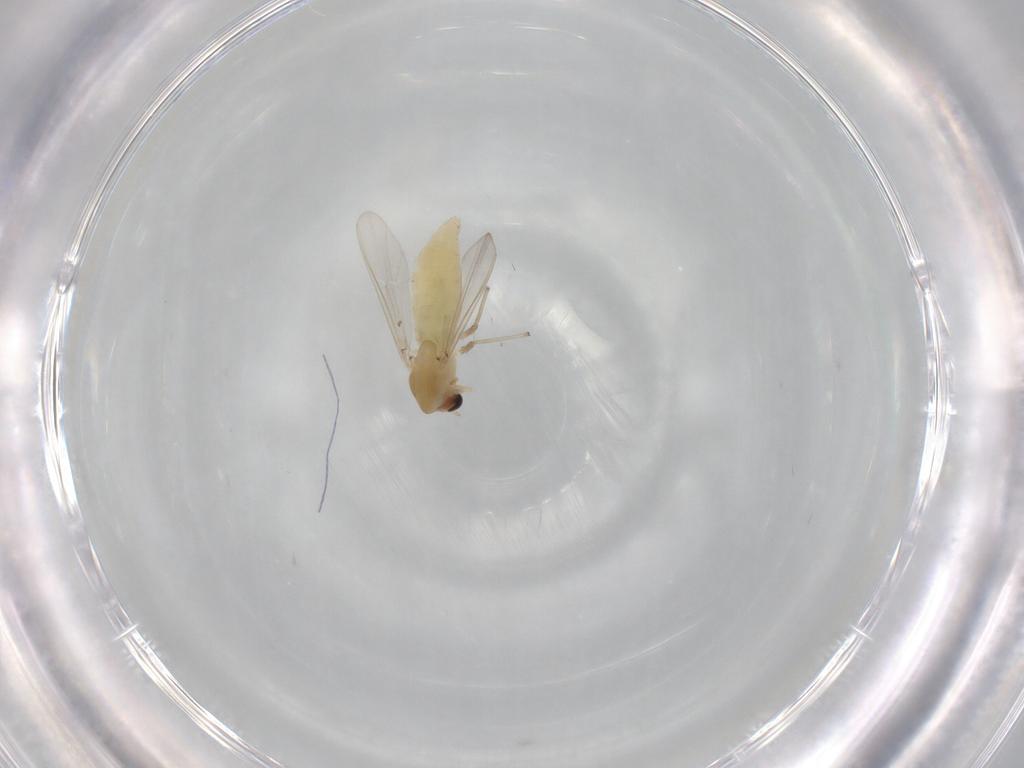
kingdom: Animalia
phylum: Arthropoda
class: Insecta
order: Diptera
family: Chironomidae
